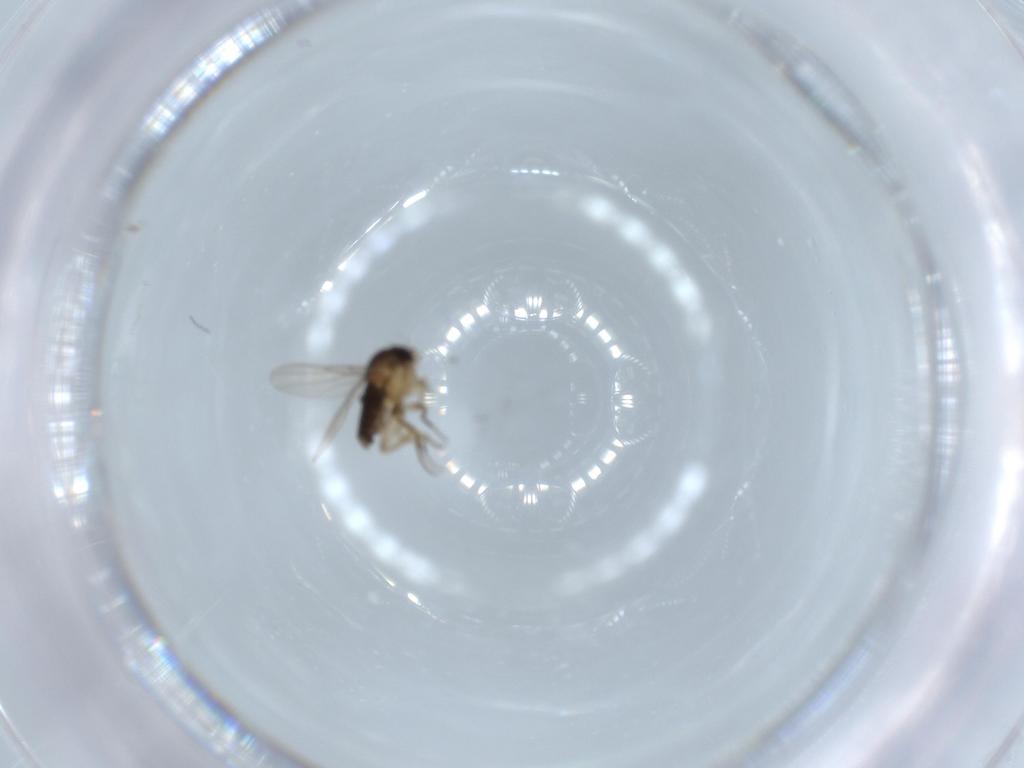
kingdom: Animalia
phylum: Arthropoda
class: Insecta
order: Diptera
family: Phoridae
